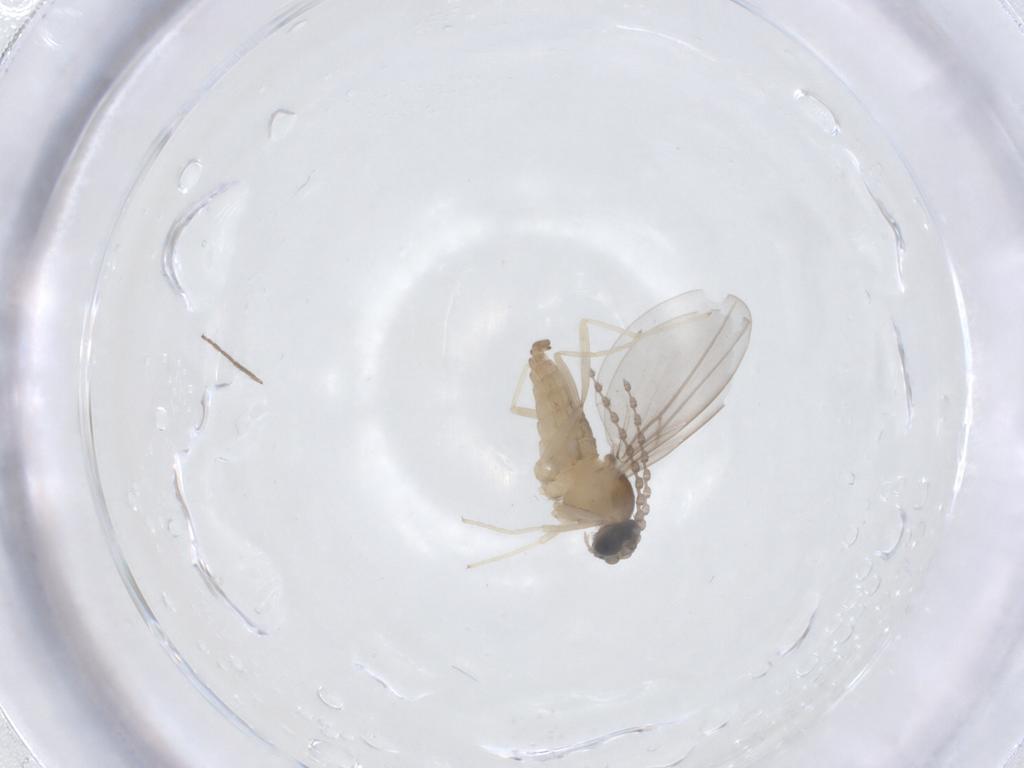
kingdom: Animalia
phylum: Arthropoda
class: Insecta
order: Diptera
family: Cecidomyiidae
